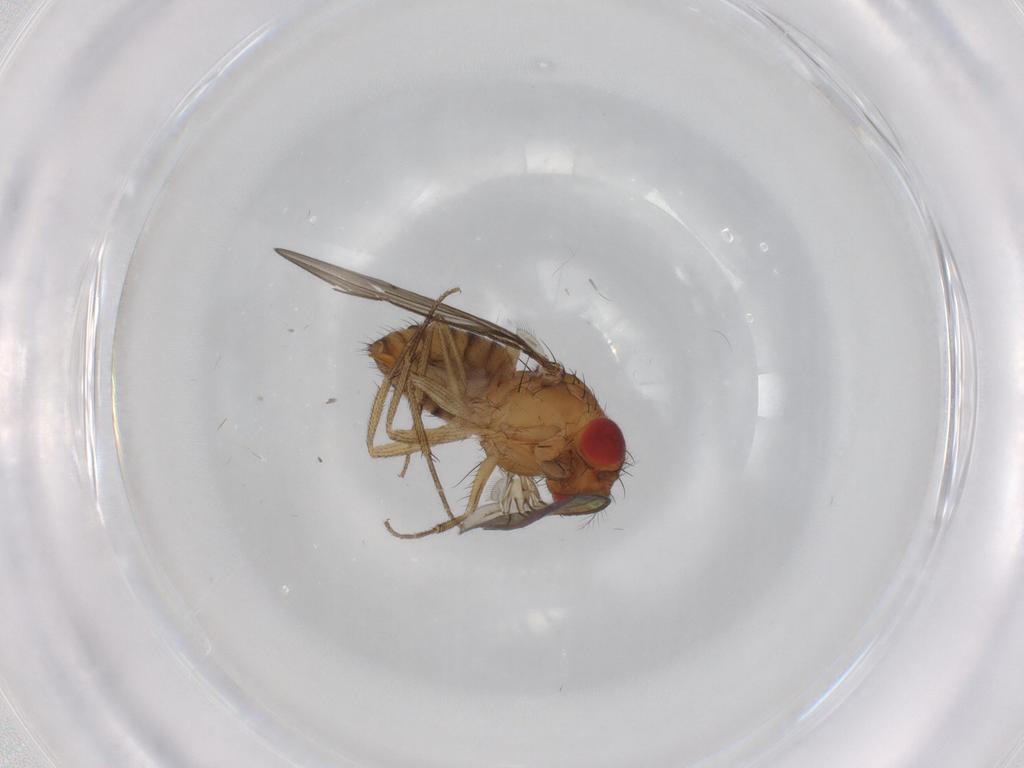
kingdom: Animalia
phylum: Arthropoda
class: Insecta
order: Diptera
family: Drosophilidae
